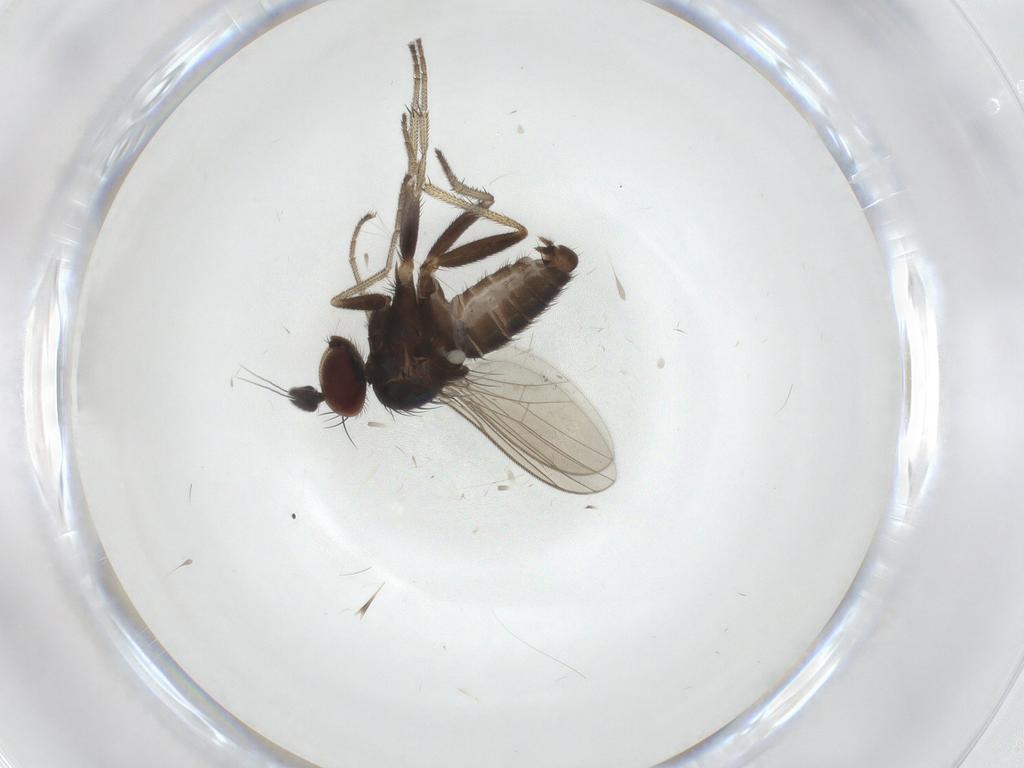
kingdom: Animalia
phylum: Arthropoda
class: Insecta
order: Diptera
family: Dolichopodidae
